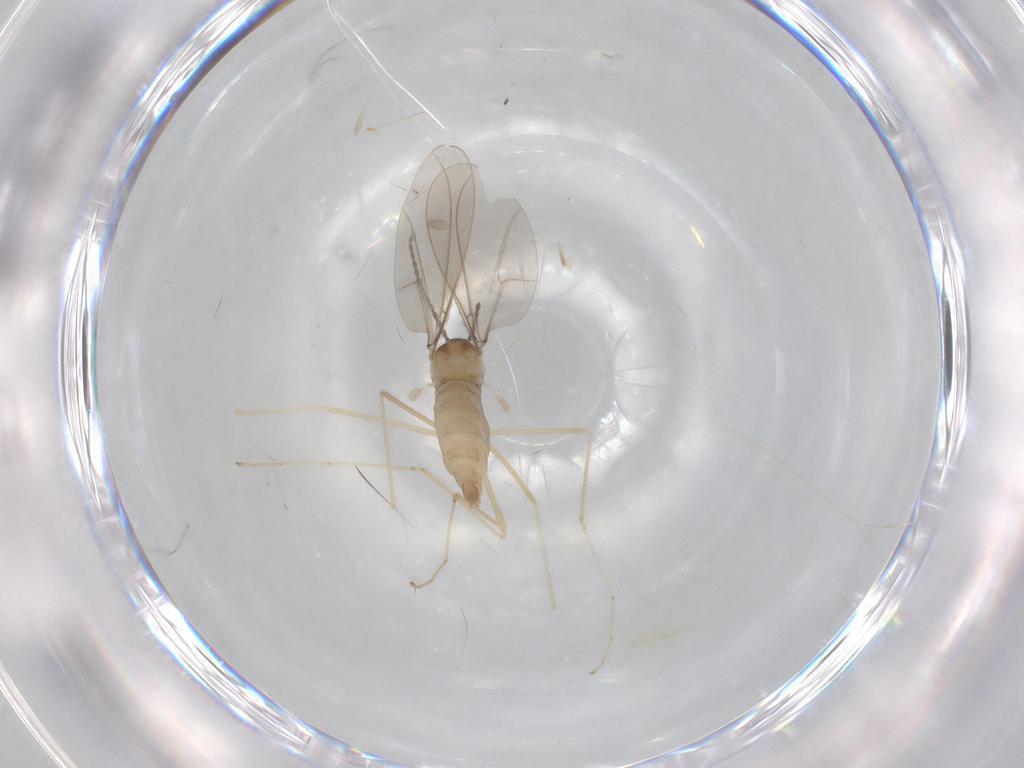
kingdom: Animalia
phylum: Arthropoda
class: Insecta
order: Diptera
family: Cecidomyiidae
